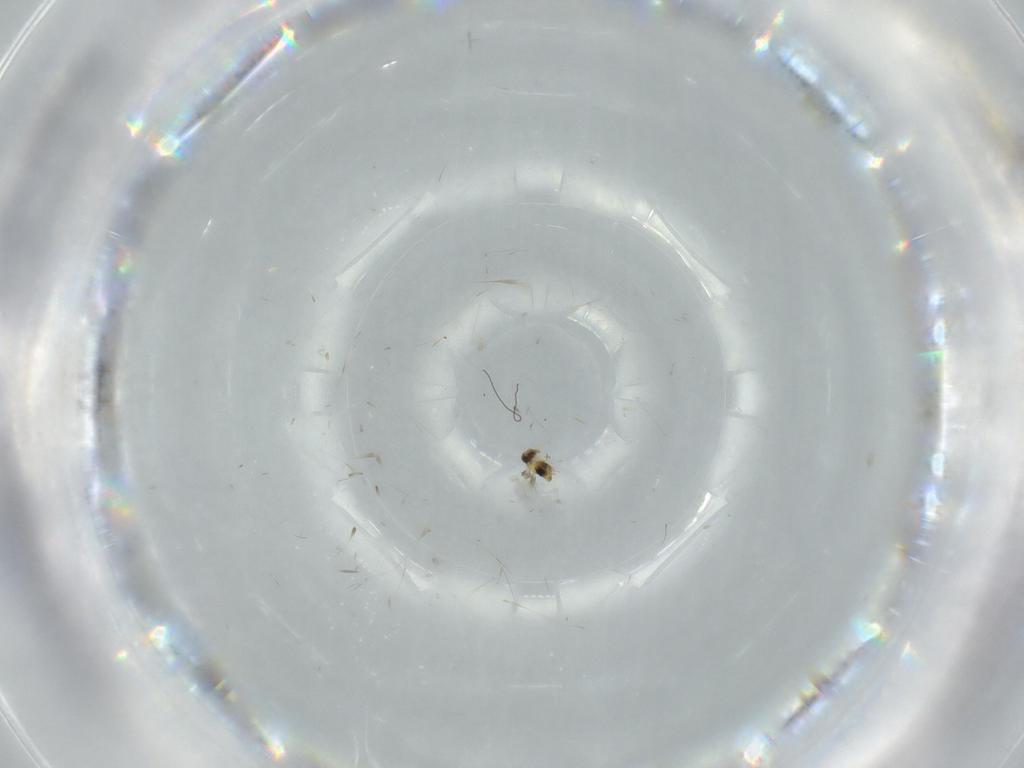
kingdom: Animalia
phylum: Arthropoda
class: Insecta
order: Hymenoptera
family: Signiphoridae
